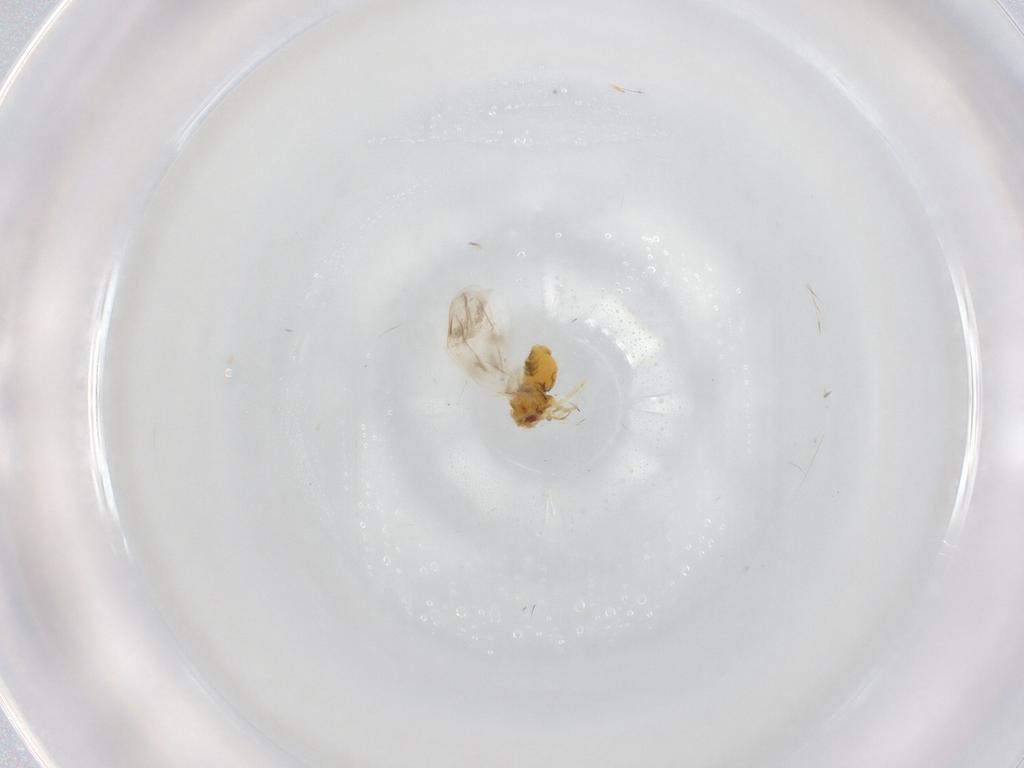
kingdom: Animalia
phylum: Arthropoda
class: Insecta
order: Hemiptera
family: Aleyrodidae
